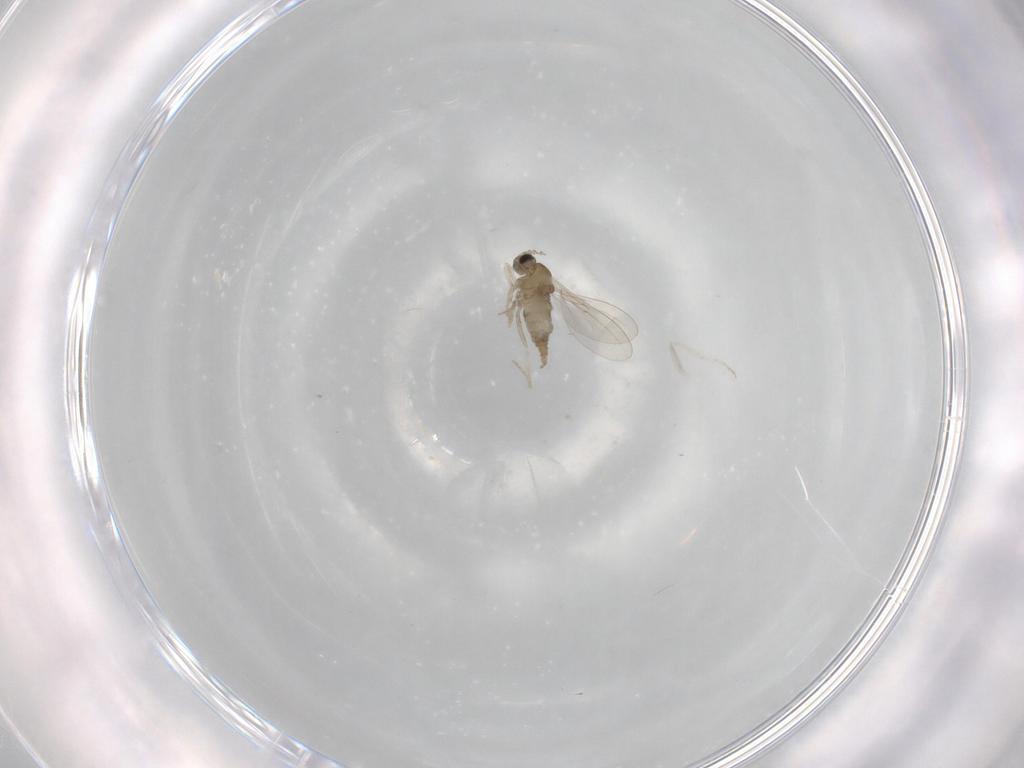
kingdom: Animalia
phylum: Arthropoda
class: Insecta
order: Diptera
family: Cecidomyiidae
